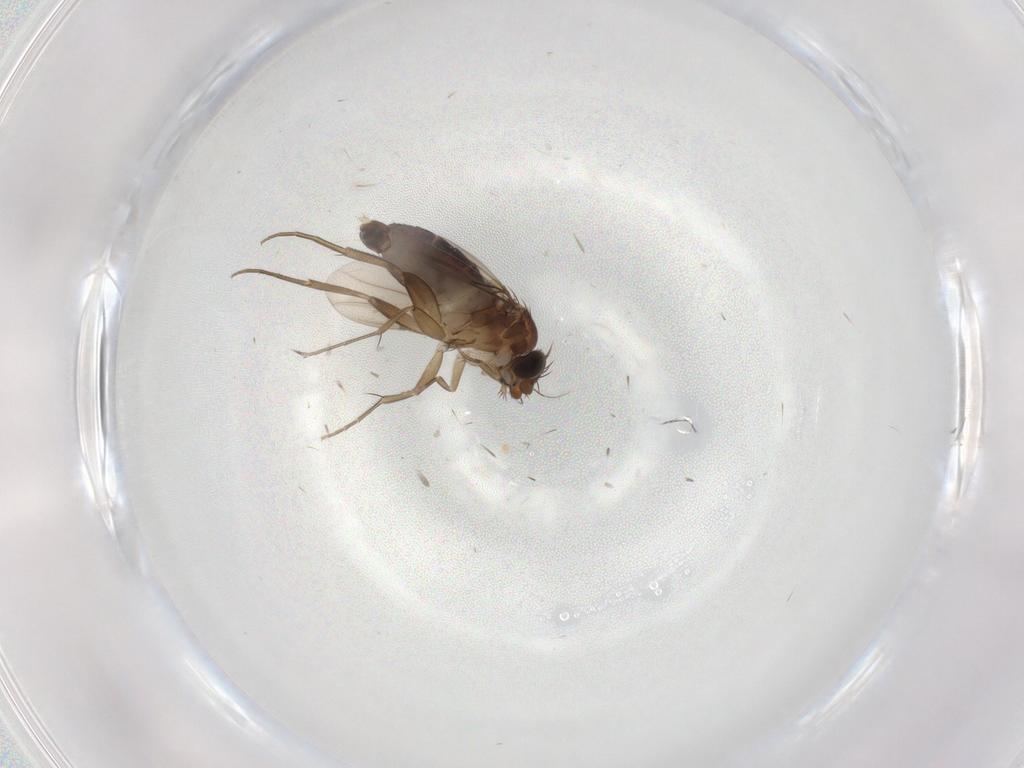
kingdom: Animalia
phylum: Arthropoda
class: Insecta
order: Diptera
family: Phoridae
